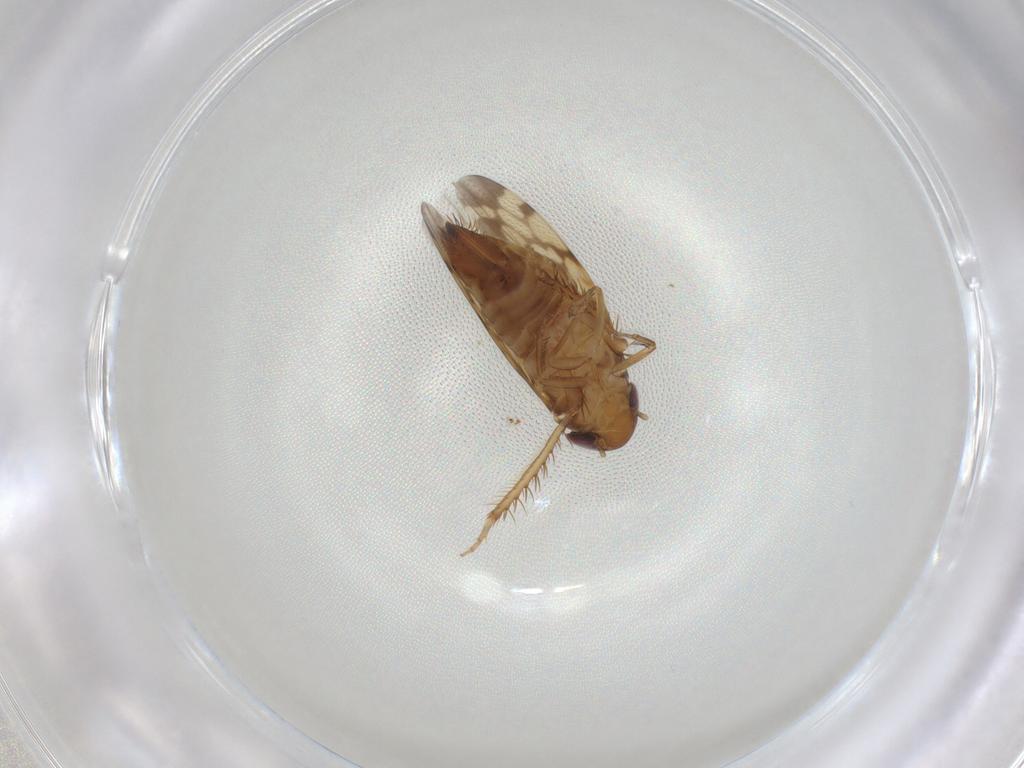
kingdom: Animalia
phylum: Arthropoda
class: Insecta
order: Hemiptera
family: Cicadellidae
